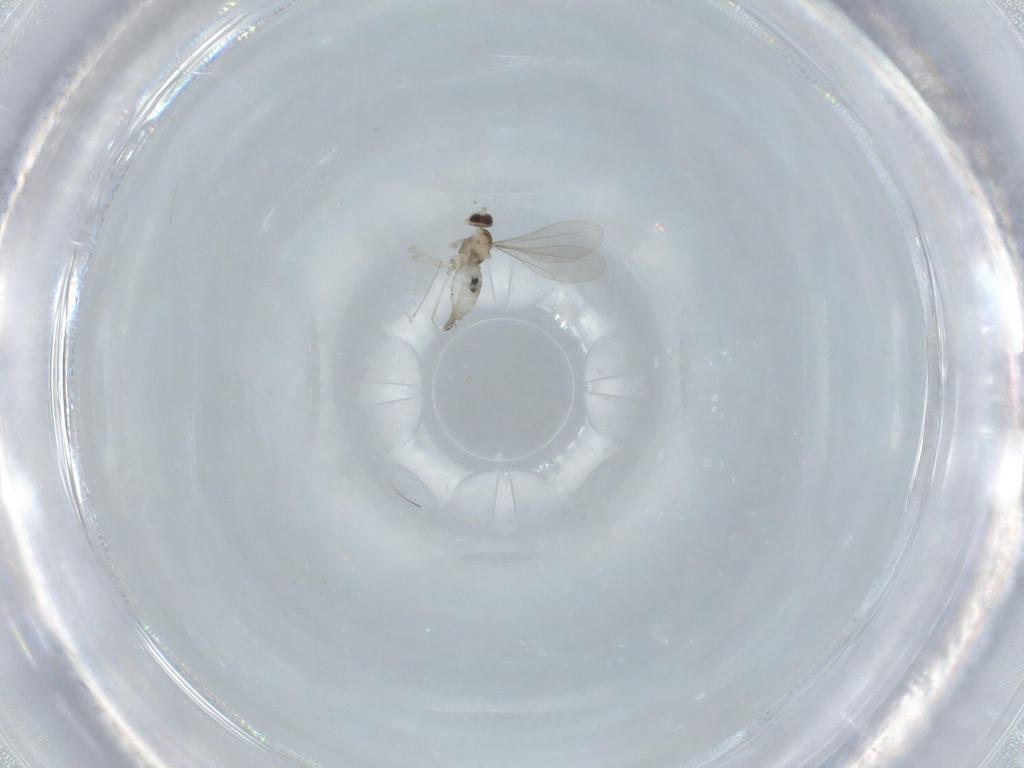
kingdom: Animalia
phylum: Arthropoda
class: Insecta
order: Diptera
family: Cecidomyiidae
